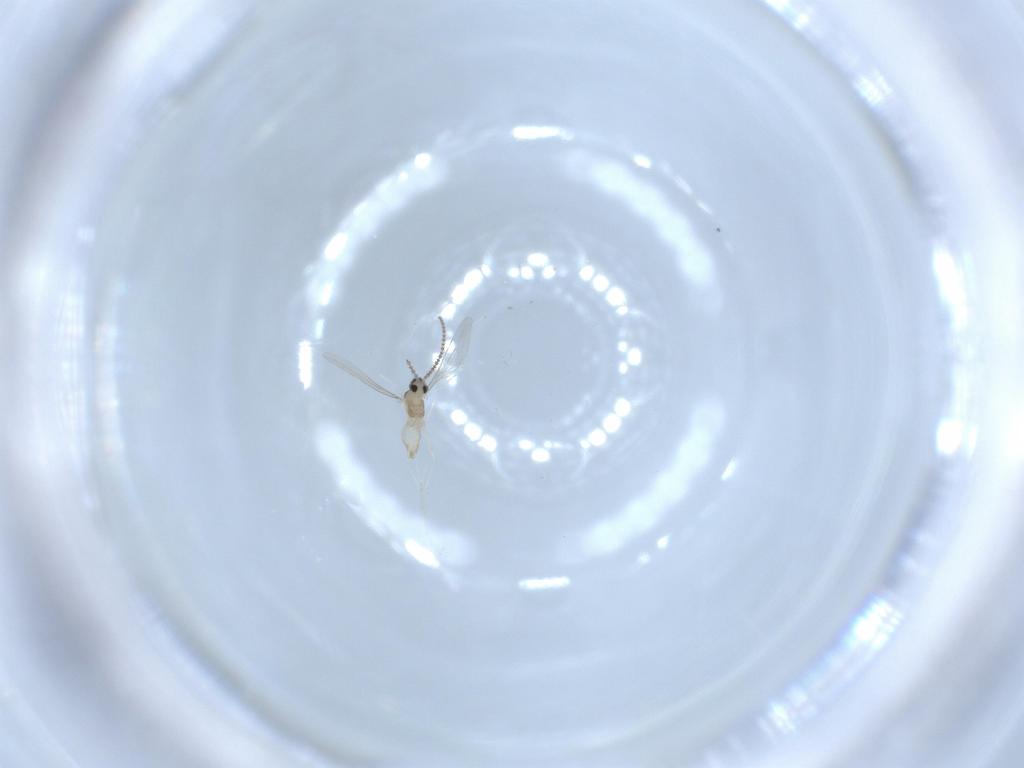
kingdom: Animalia
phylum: Arthropoda
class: Insecta
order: Diptera
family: Cecidomyiidae
